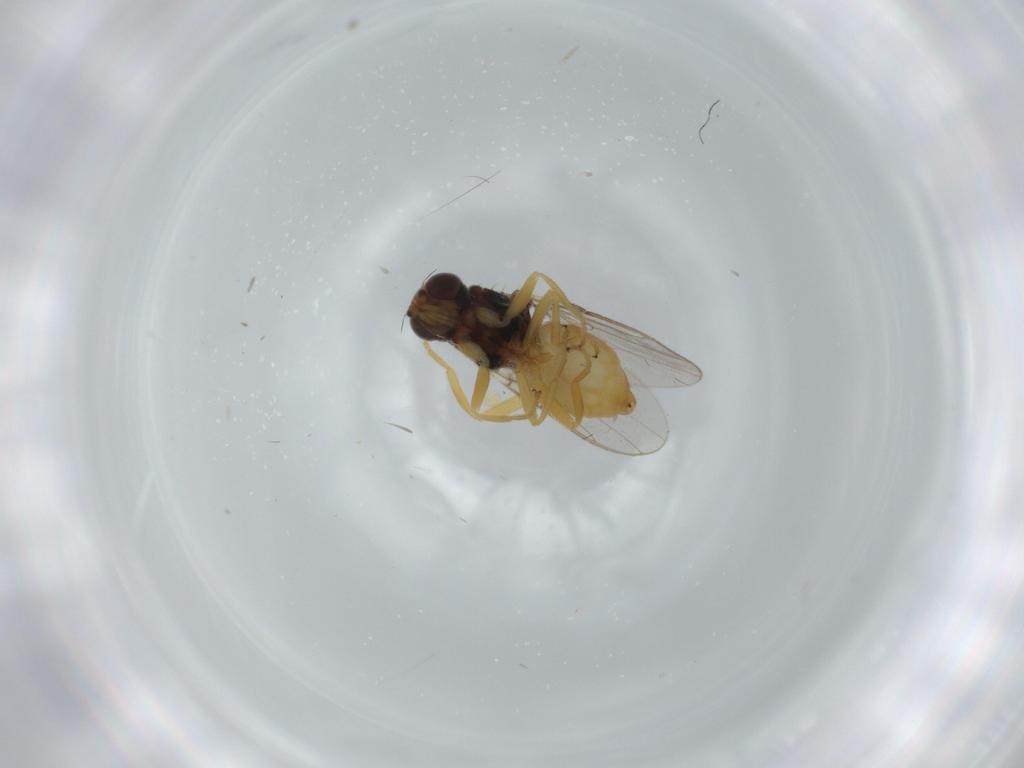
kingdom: Animalia
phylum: Arthropoda
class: Insecta
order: Diptera
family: Chloropidae
